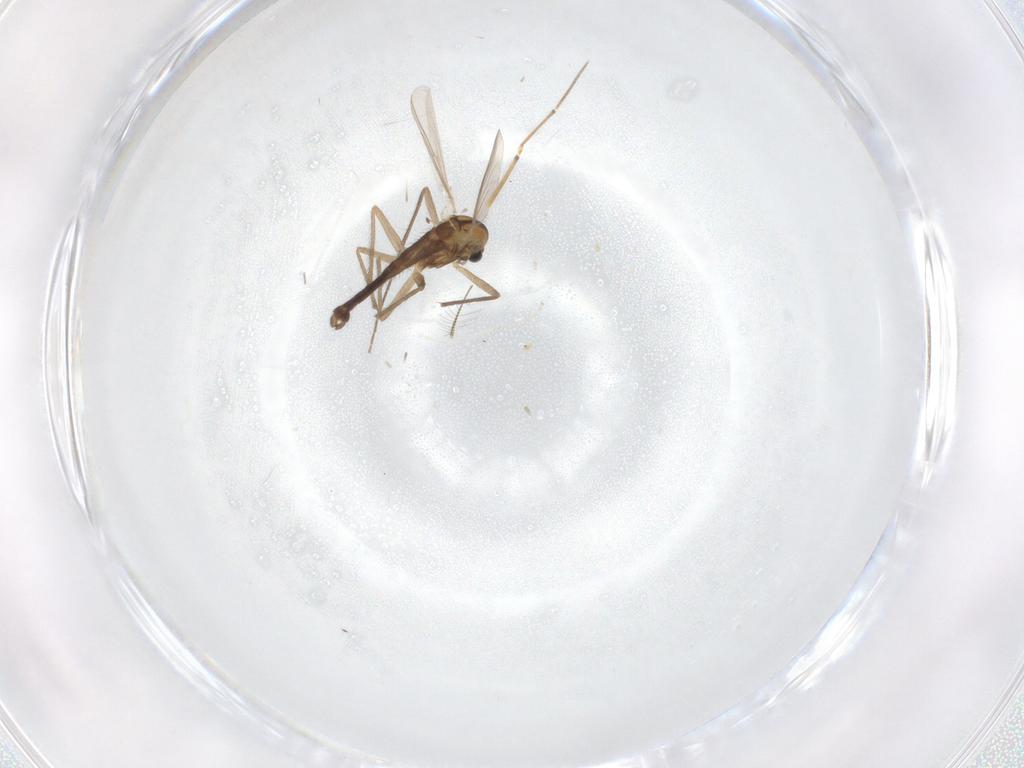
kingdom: Animalia
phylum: Arthropoda
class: Insecta
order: Diptera
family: Chironomidae
